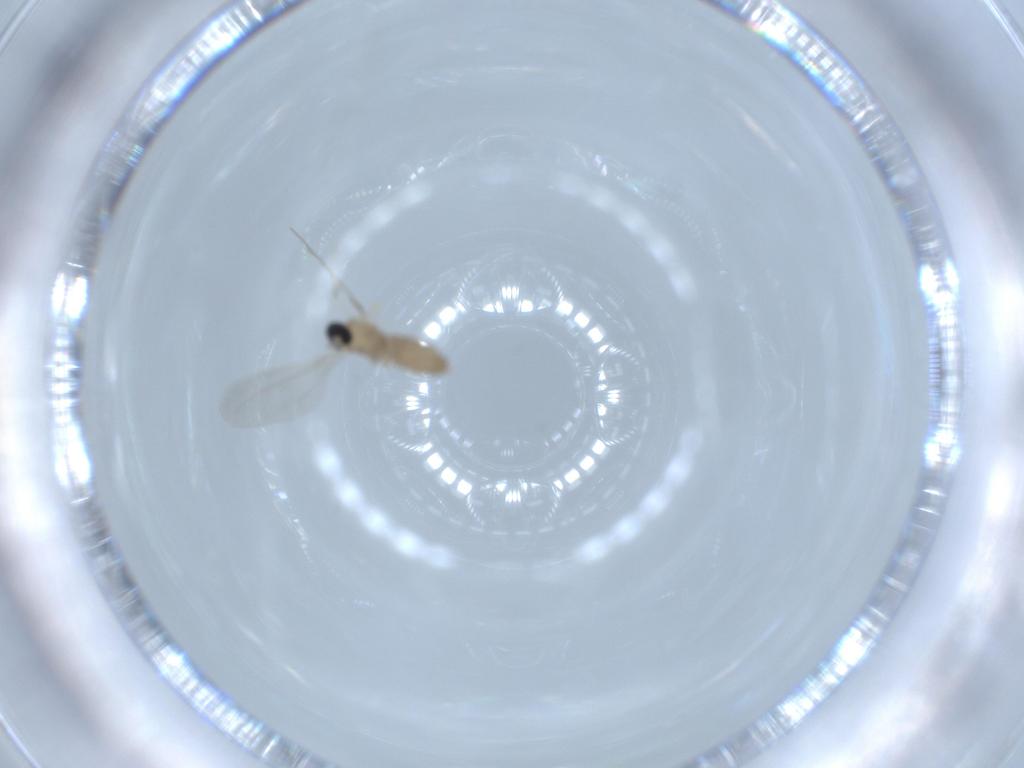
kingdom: Animalia
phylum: Arthropoda
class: Insecta
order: Diptera
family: Cecidomyiidae
